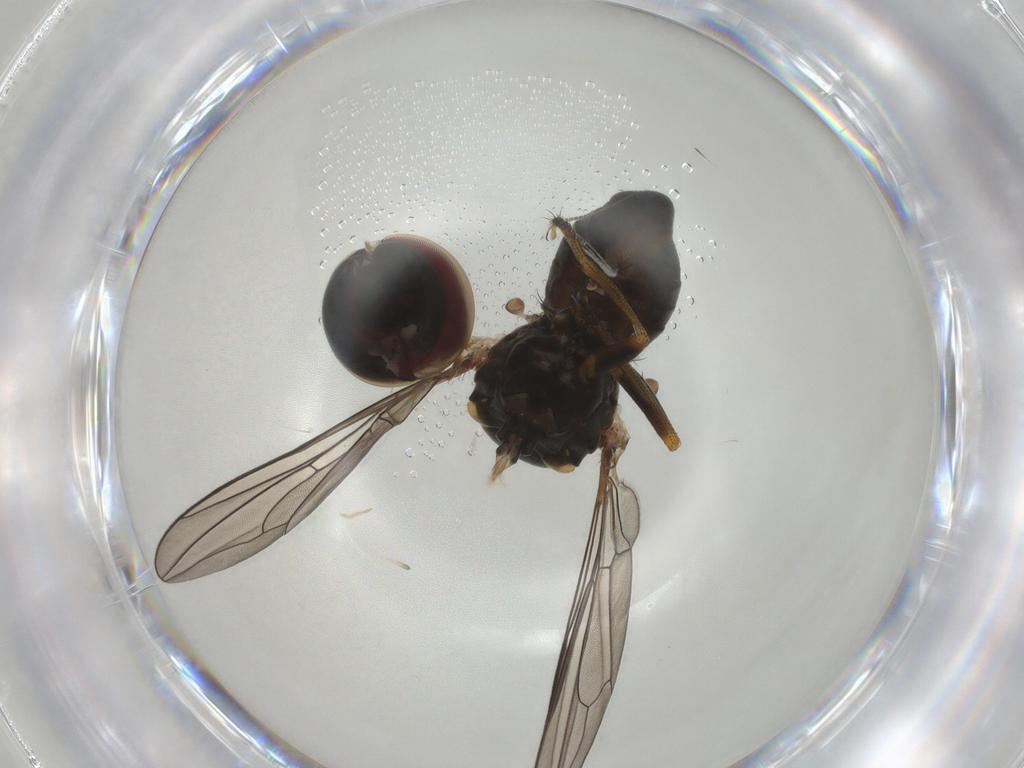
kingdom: Animalia
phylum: Arthropoda
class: Insecta
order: Diptera
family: Pipunculidae
